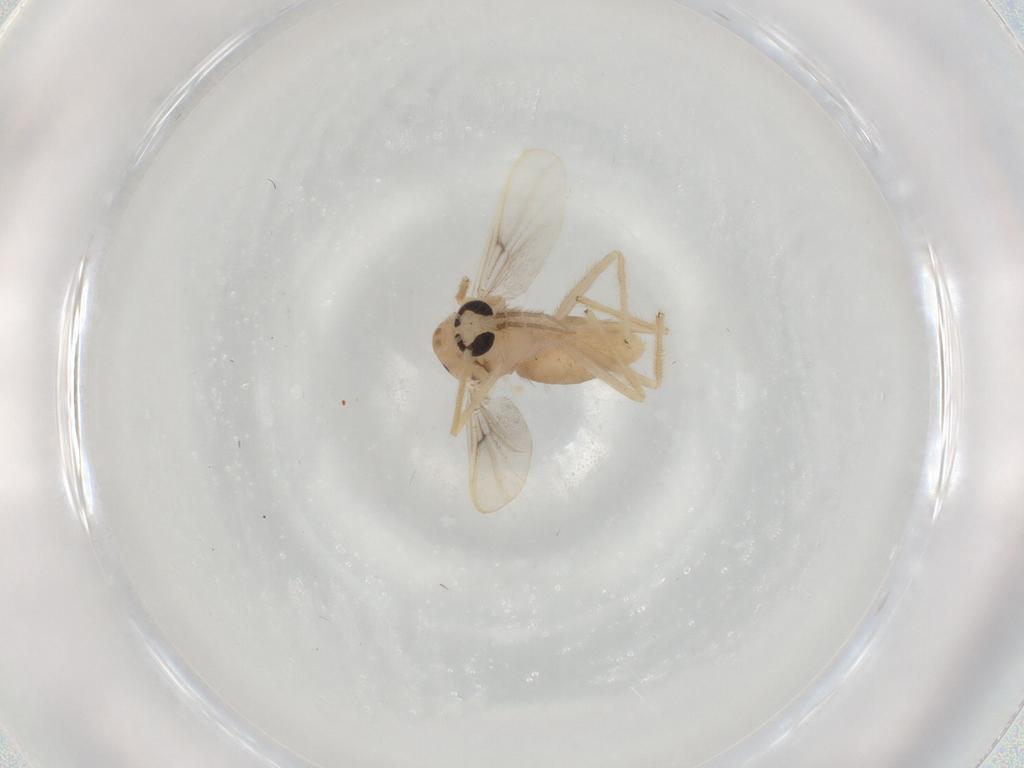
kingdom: Animalia
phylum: Arthropoda
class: Insecta
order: Diptera
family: Chironomidae
